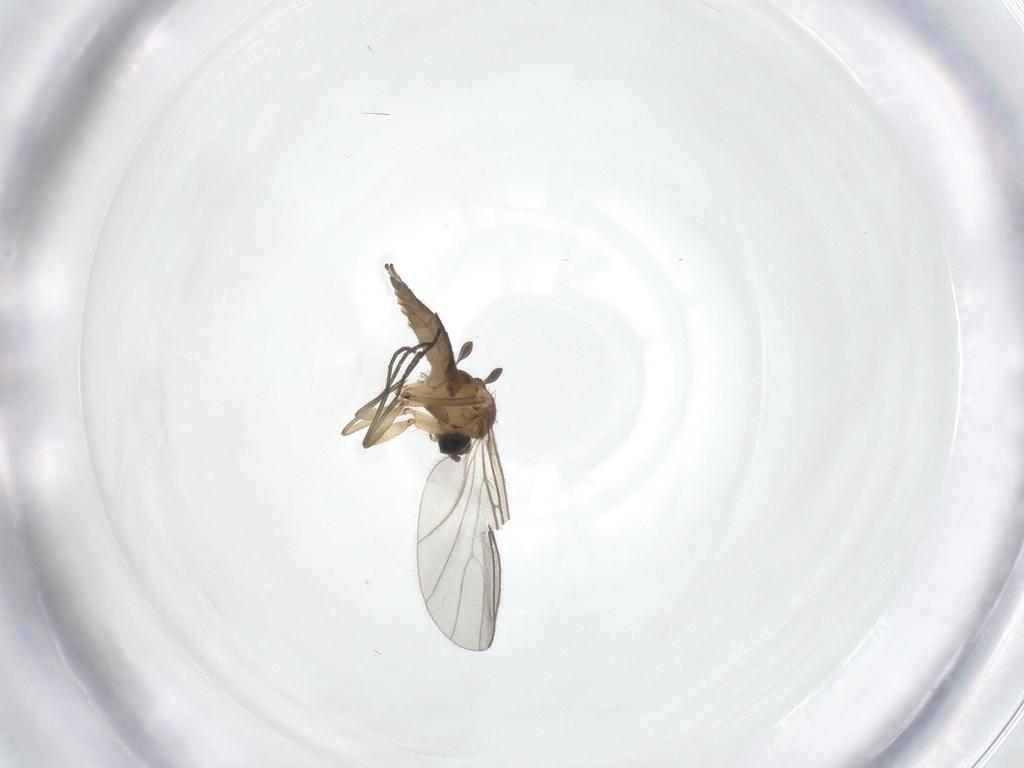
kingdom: Animalia
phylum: Arthropoda
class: Insecta
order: Diptera
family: Sciaridae
